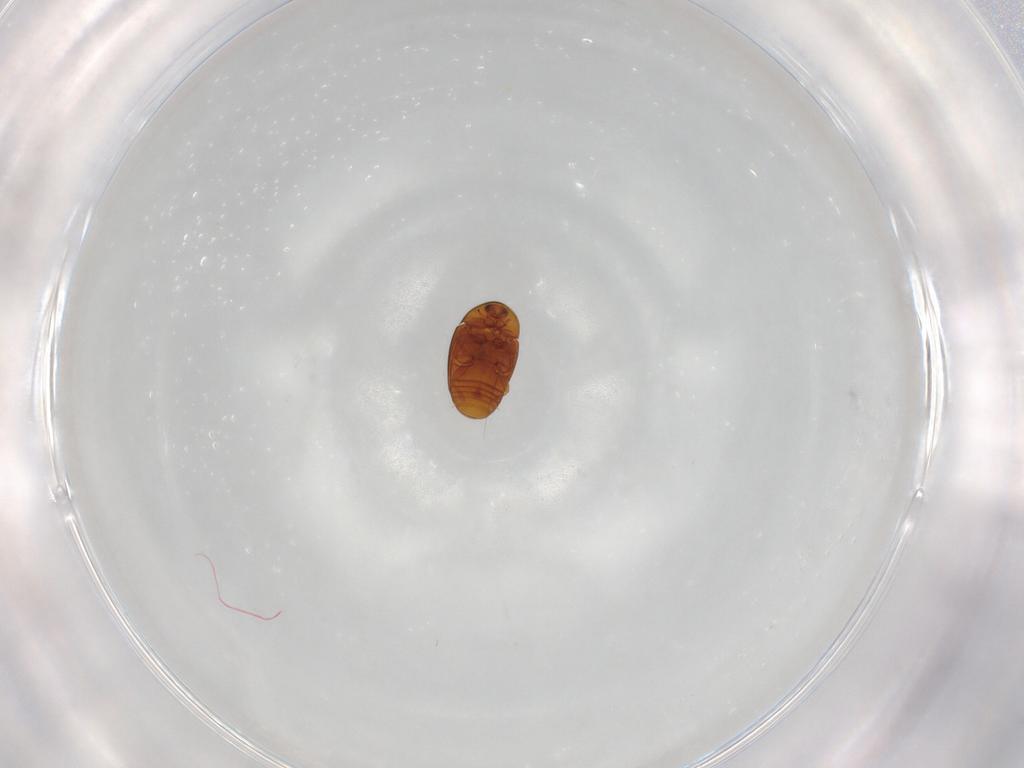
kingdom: Animalia
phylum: Arthropoda
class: Insecta
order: Coleoptera
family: Corylophidae
